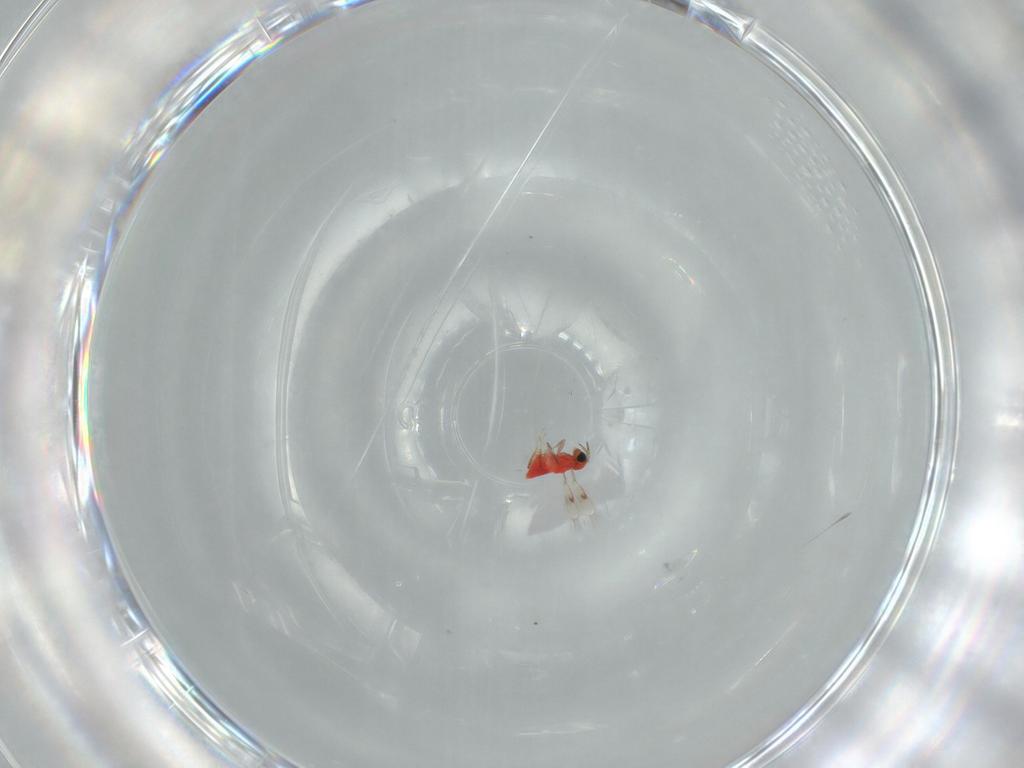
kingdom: Animalia
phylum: Arthropoda
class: Insecta
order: Hymenoptera
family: Trichogrammatidae
